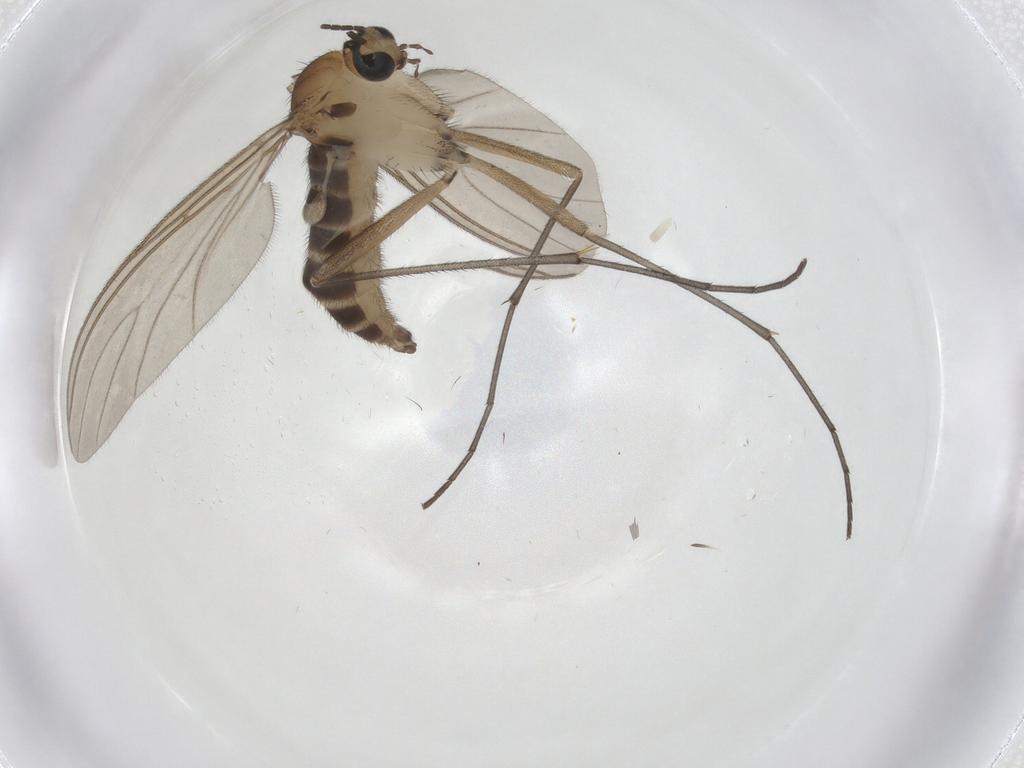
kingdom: Animalia
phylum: Arthropoda
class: Insecta
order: Diptera
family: Sciaridae
